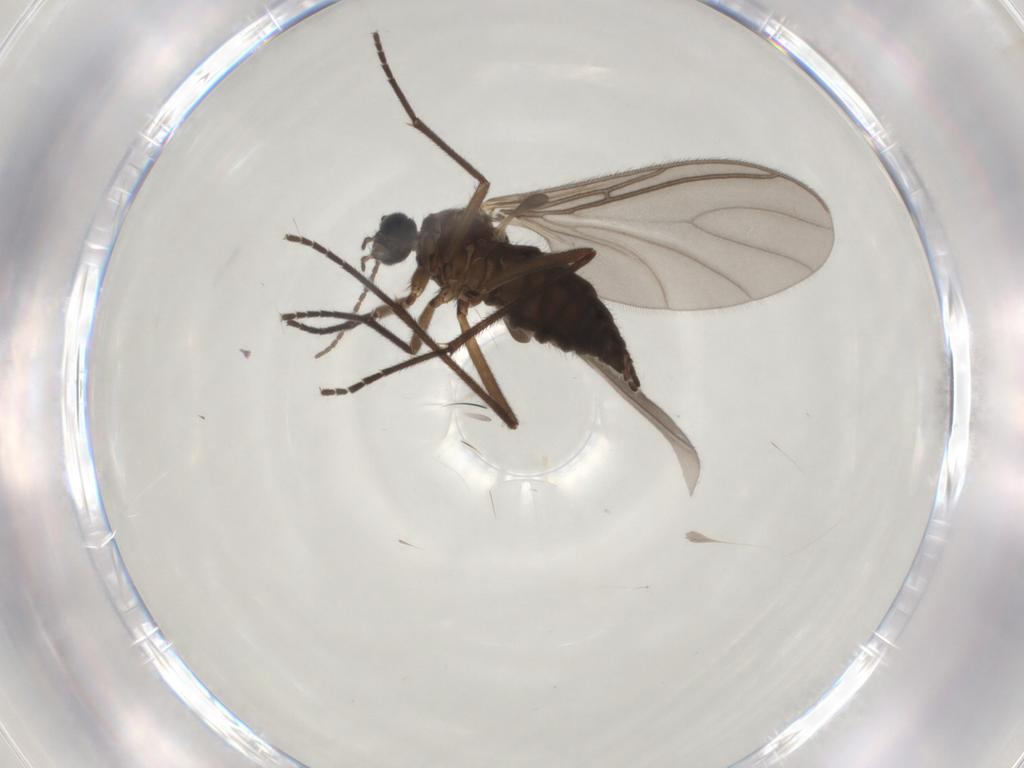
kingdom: Animalia
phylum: Arthropoda
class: Insecta
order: Diptera
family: Sciaridae
